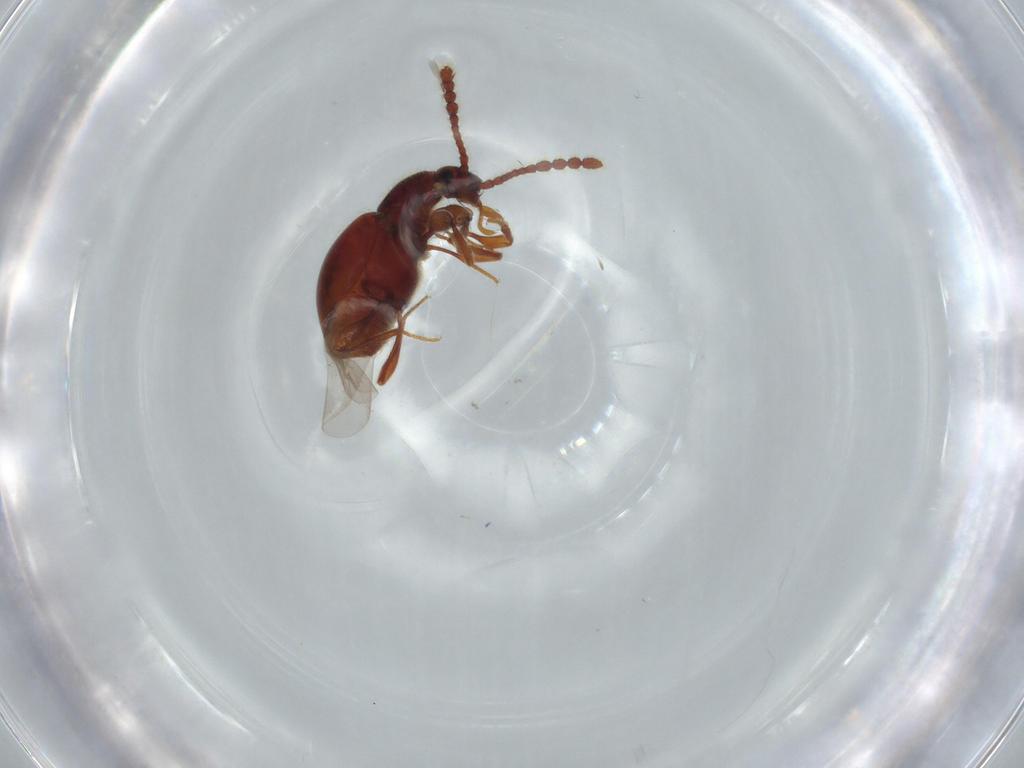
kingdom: Animalia
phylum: Arthropoda
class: Insecta
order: Coleoptera
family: Staphylinidae
